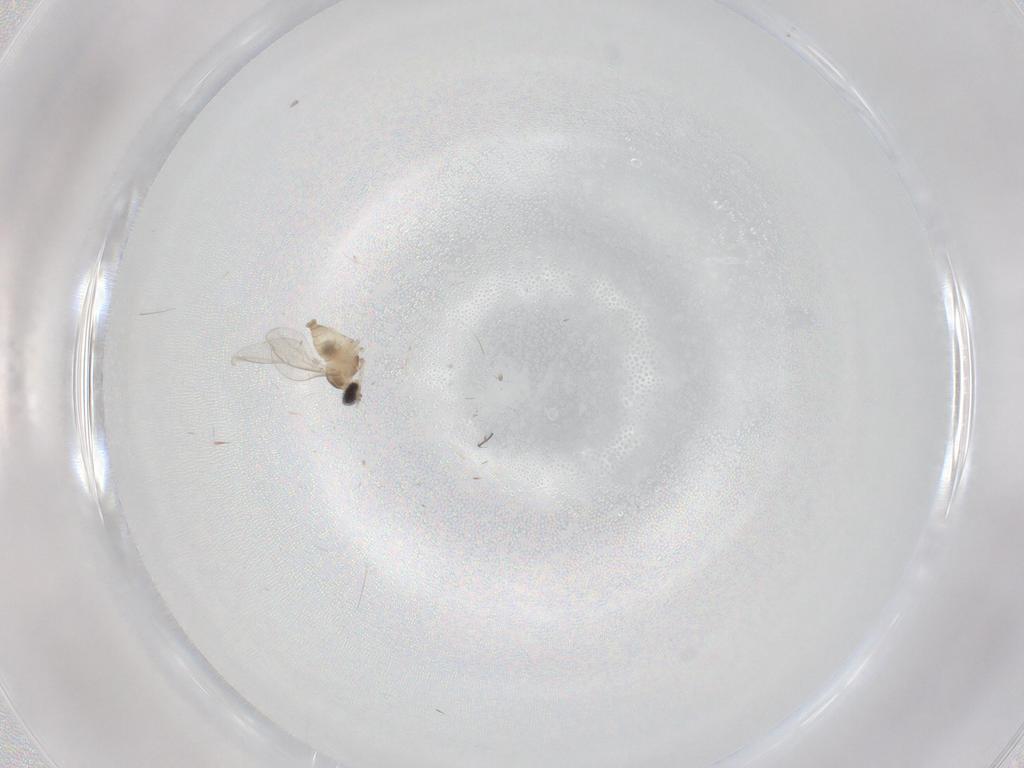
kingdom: Animalia
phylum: Arthropoda
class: Insecta
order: Diptera
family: Cecidomyiidae
